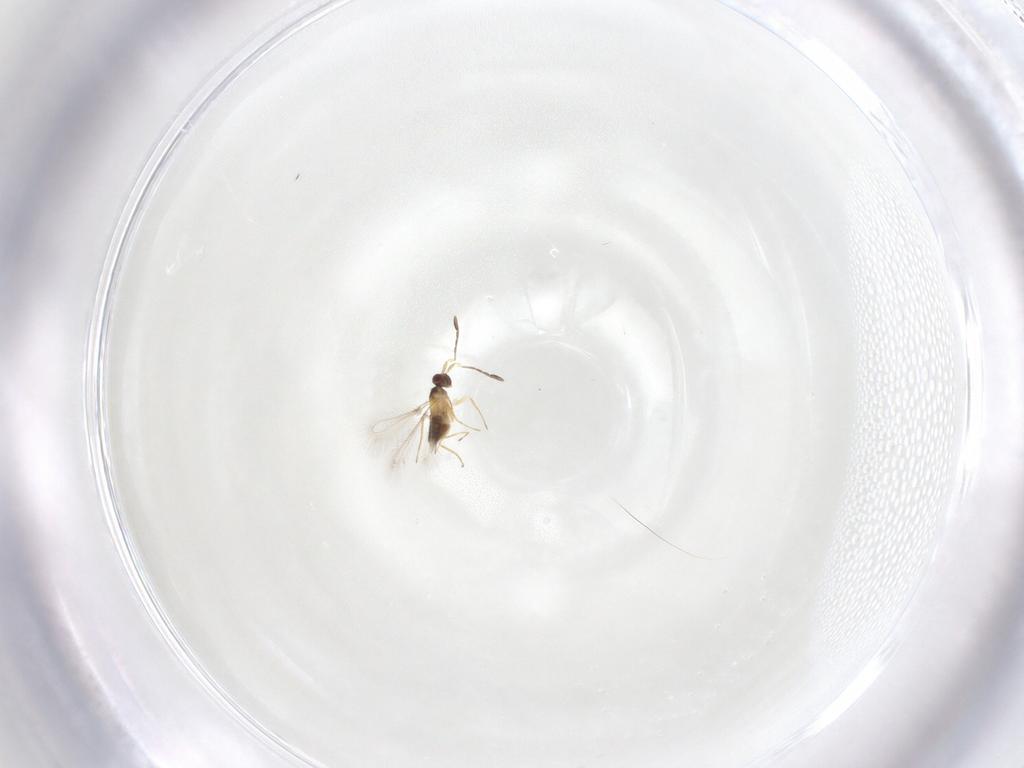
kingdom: Animalia
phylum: Arthropoda
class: Insecta
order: Hymenoptera
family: Mymaridae
